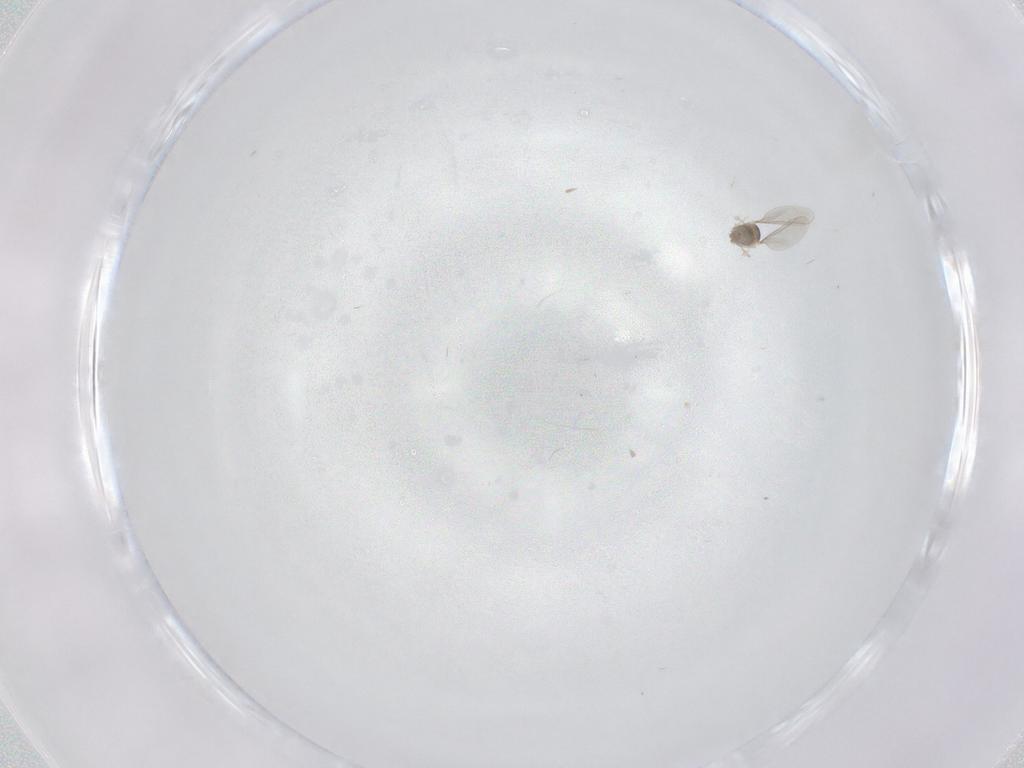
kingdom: Animalia
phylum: Arthropoda
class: Insecta
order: Diptera
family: Cecidomyiidae
